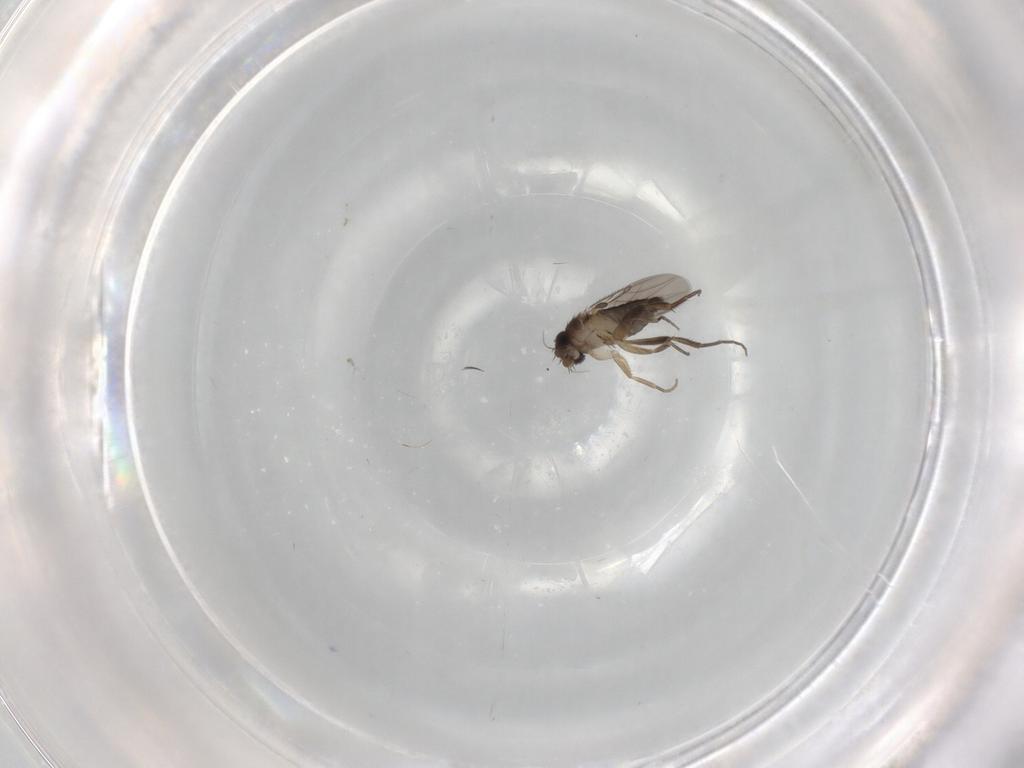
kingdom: Animalia
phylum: Arthropoda
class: Insecta
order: Diptera
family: Phoridae
